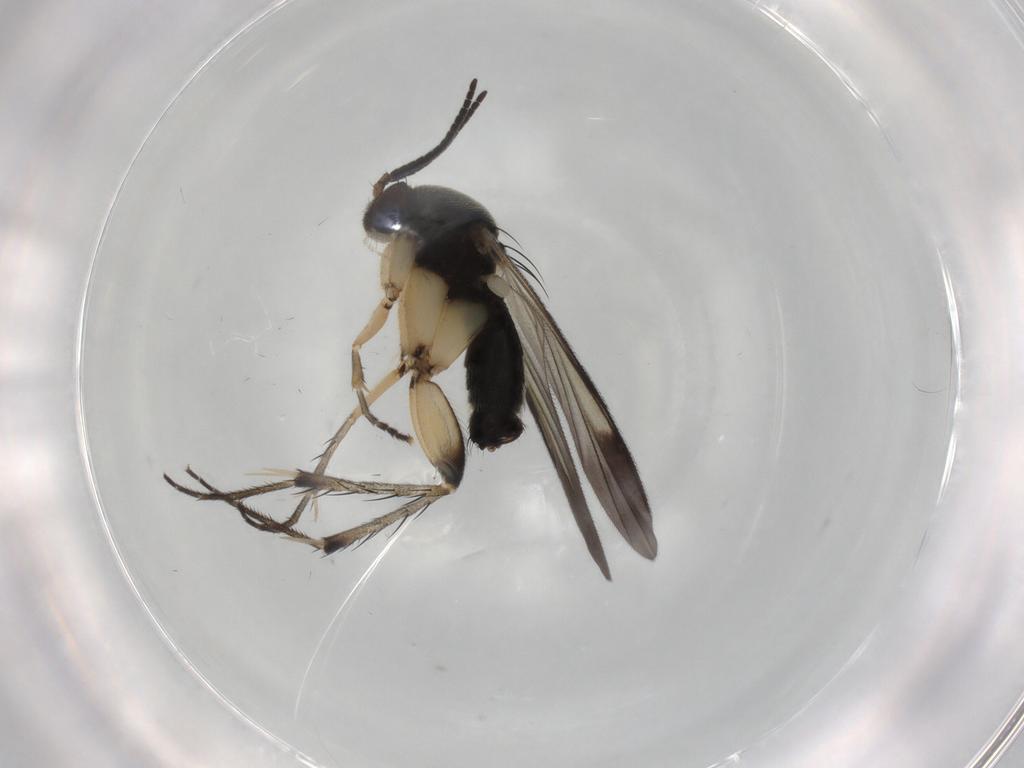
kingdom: Animalia
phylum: Arthropoda
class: Insecta
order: Diptera
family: Mycetophilidae
